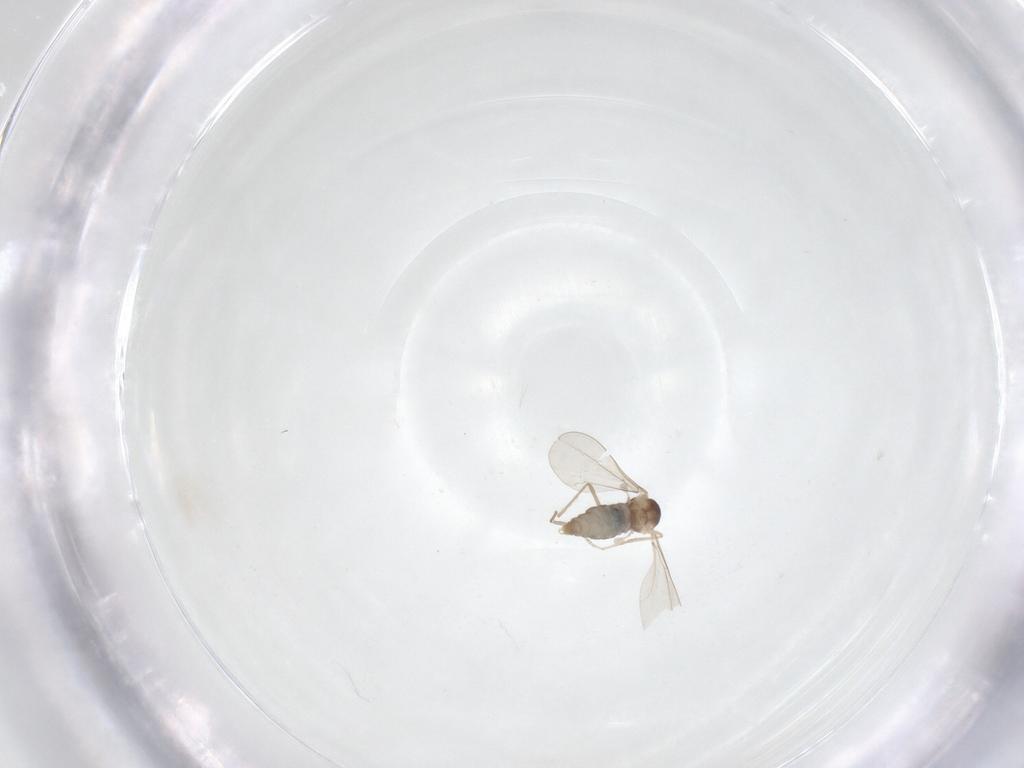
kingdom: Animalia
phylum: Arthropoda
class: Insecta
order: Diptera
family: Cecidomyiidae
